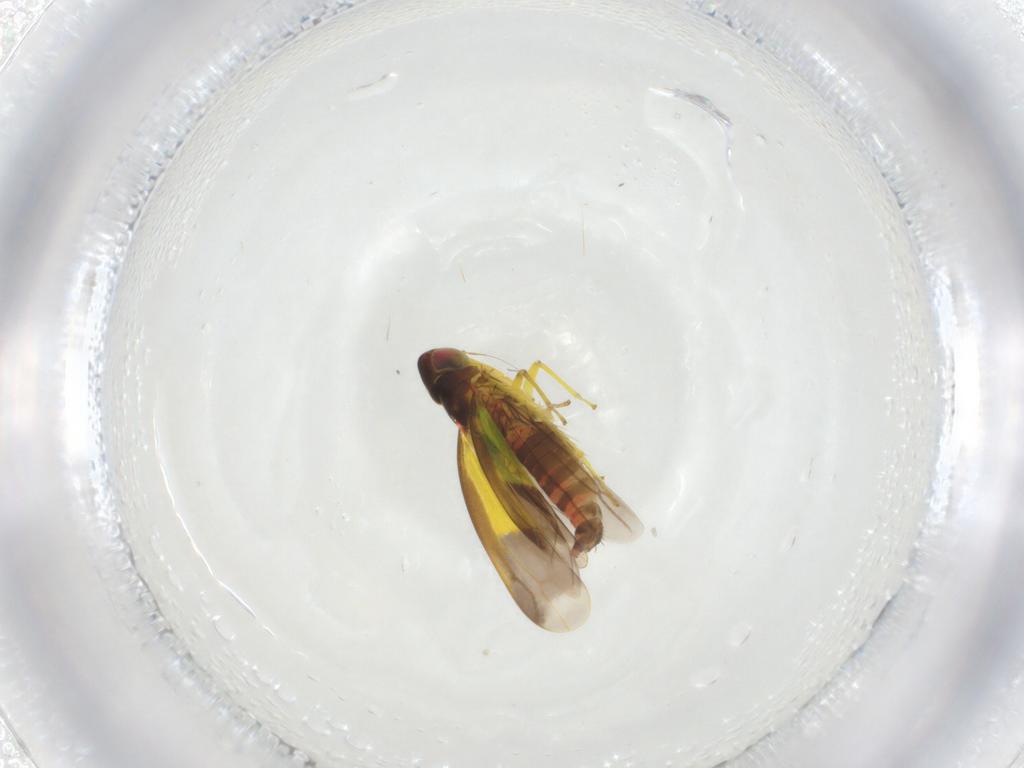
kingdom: Animalia
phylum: Arthropoda
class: Insecta
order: Hemiptera
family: Cicadellidae
